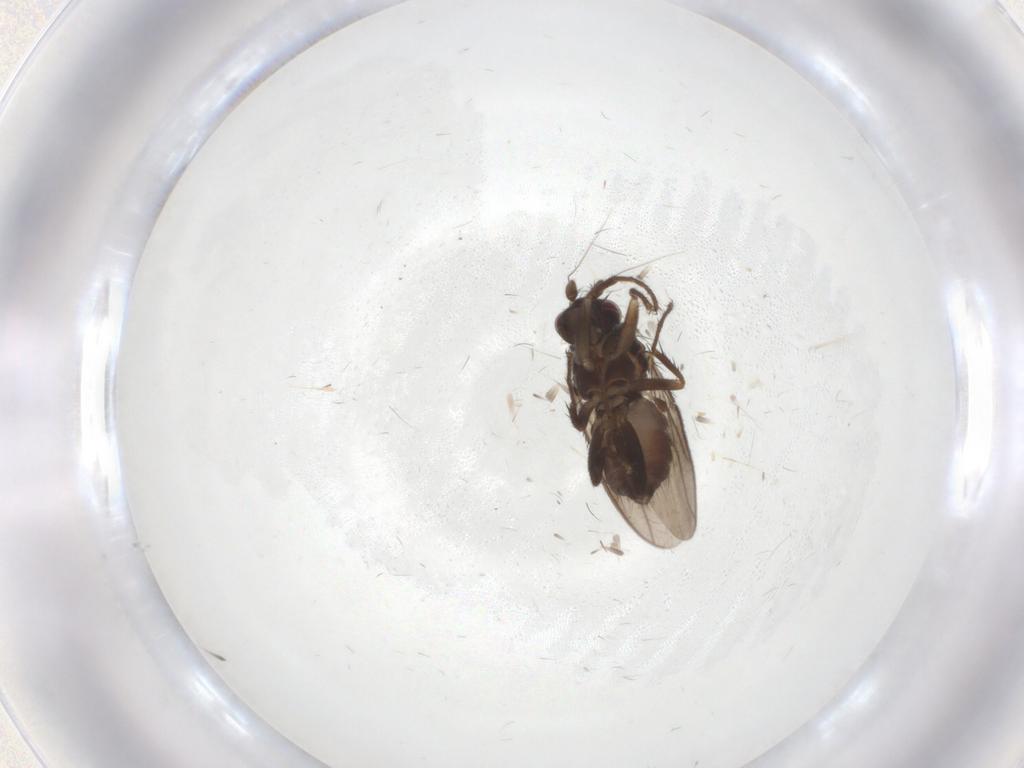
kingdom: Animalia
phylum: Arthropoda
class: Insecta
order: Diptera
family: Sphaeroceridae
